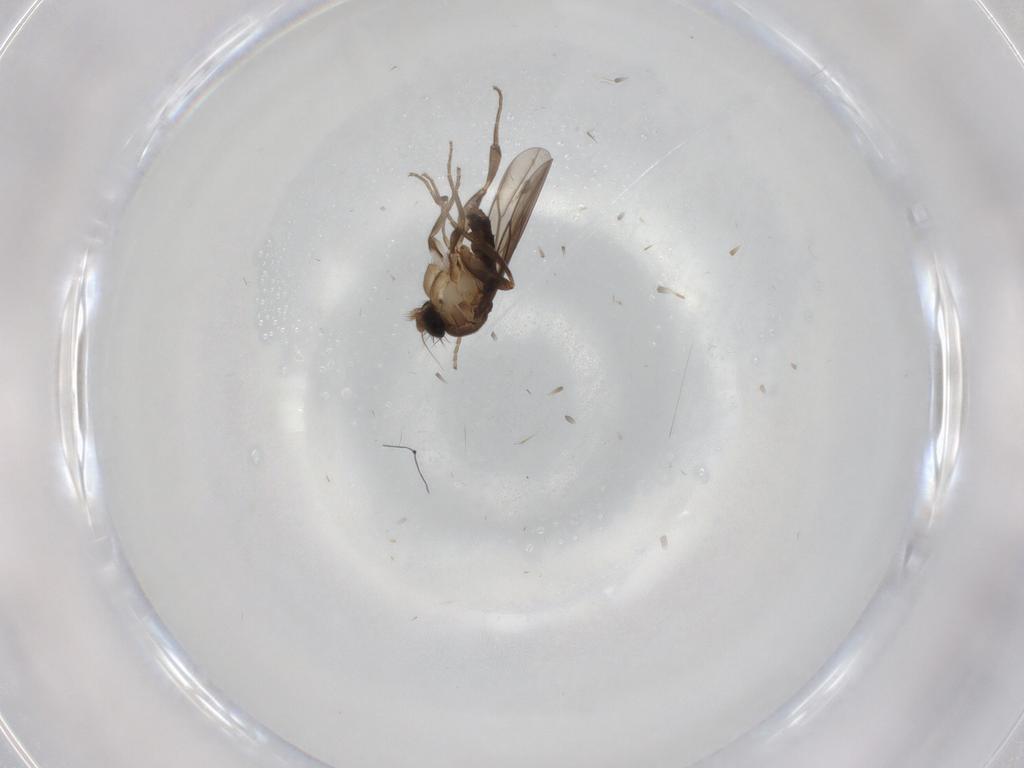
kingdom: Animalia
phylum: Arthropoda
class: Insecta
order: Diptera
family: Limoniidae
